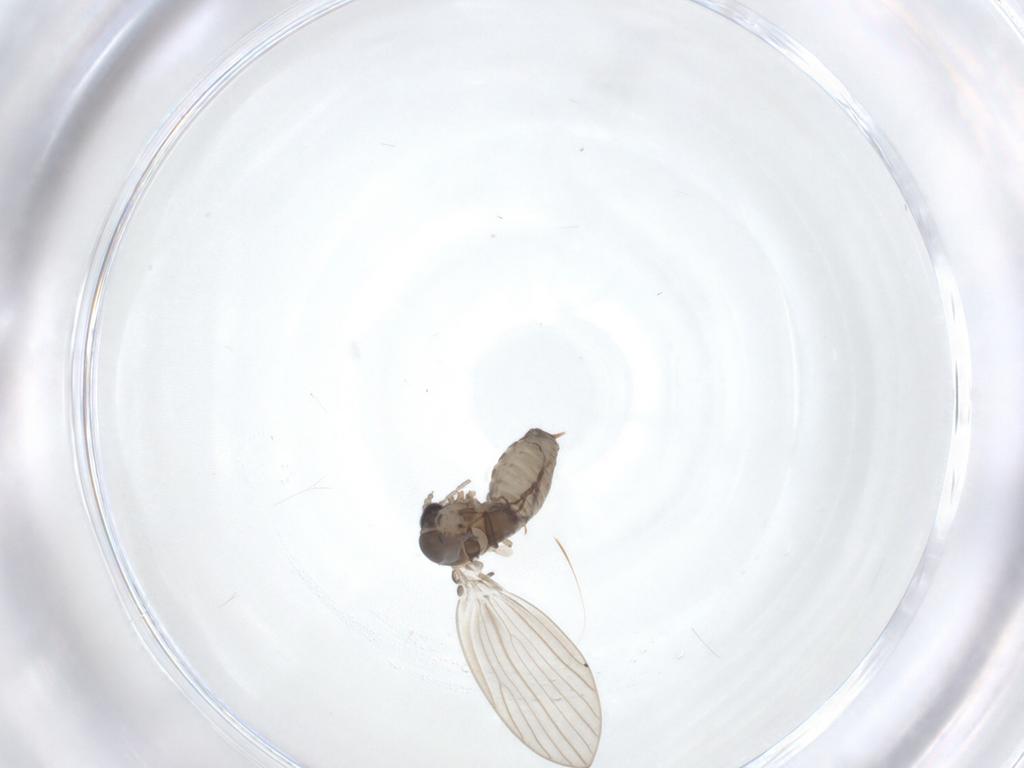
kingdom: Animalia
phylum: Arthropoda
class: Insecta
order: Diptera
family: Psychodidae
